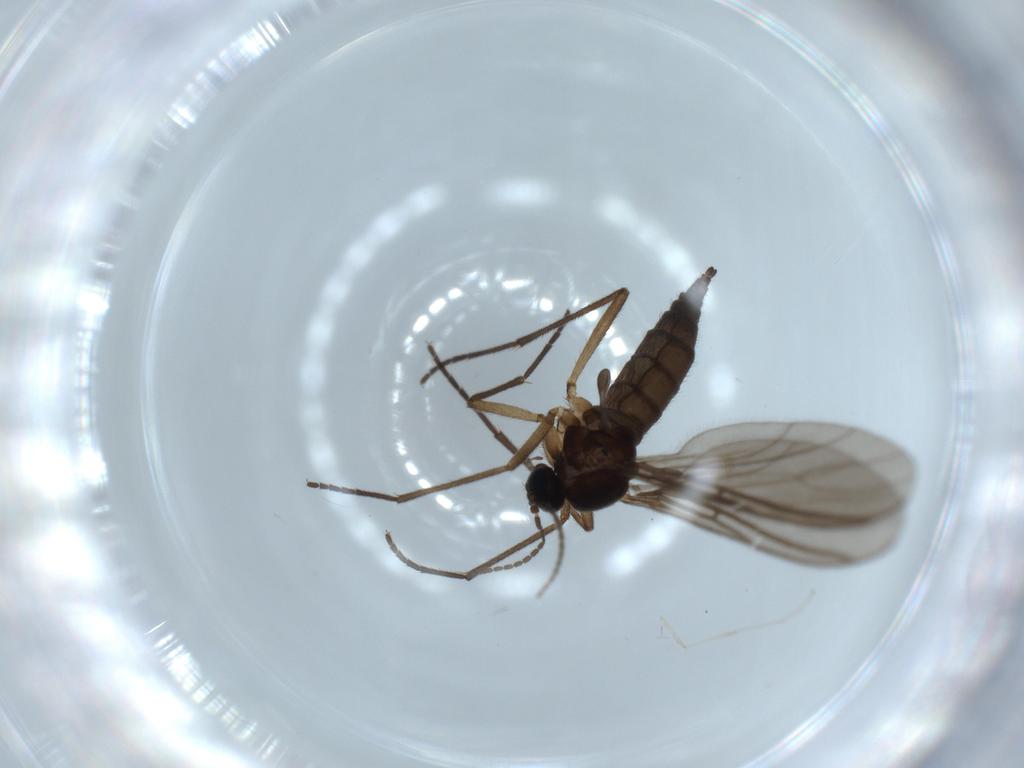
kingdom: Animalia
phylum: Arthropoda
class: Insecta
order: Diptera
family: Sciaridae
